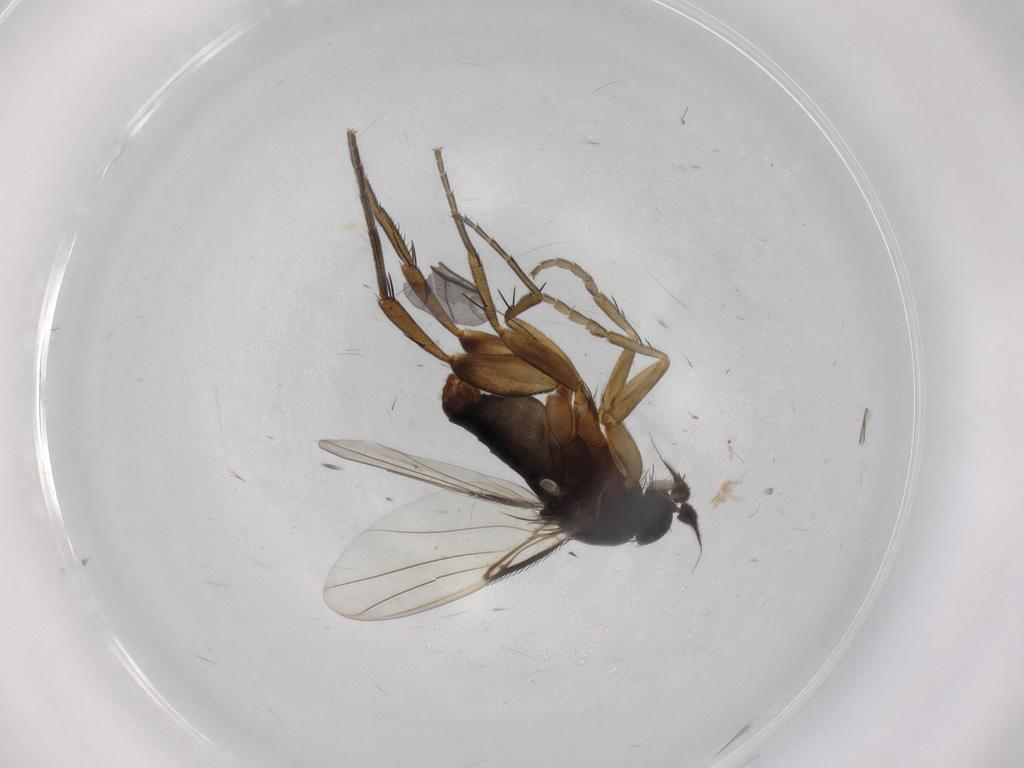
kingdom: Animalia
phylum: Arthropoda
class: Insecta
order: Diptera
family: Phoridae
